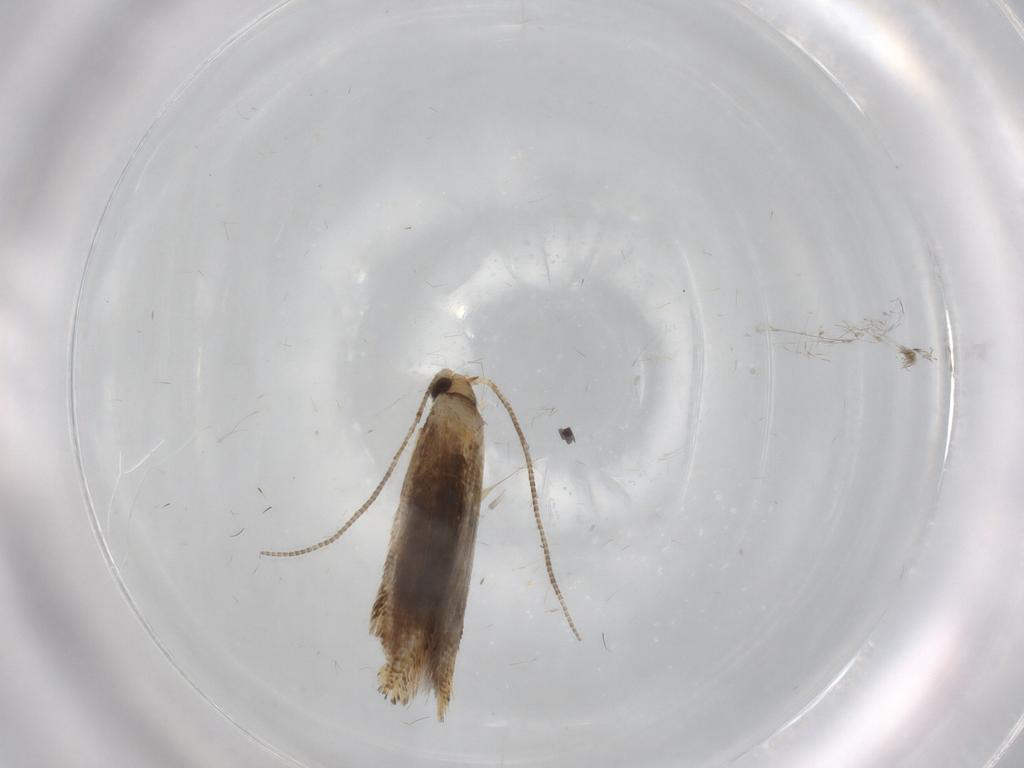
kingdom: Animalia
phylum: Arthropoda
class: Insecta
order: Lepidoptera
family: Tineidae
